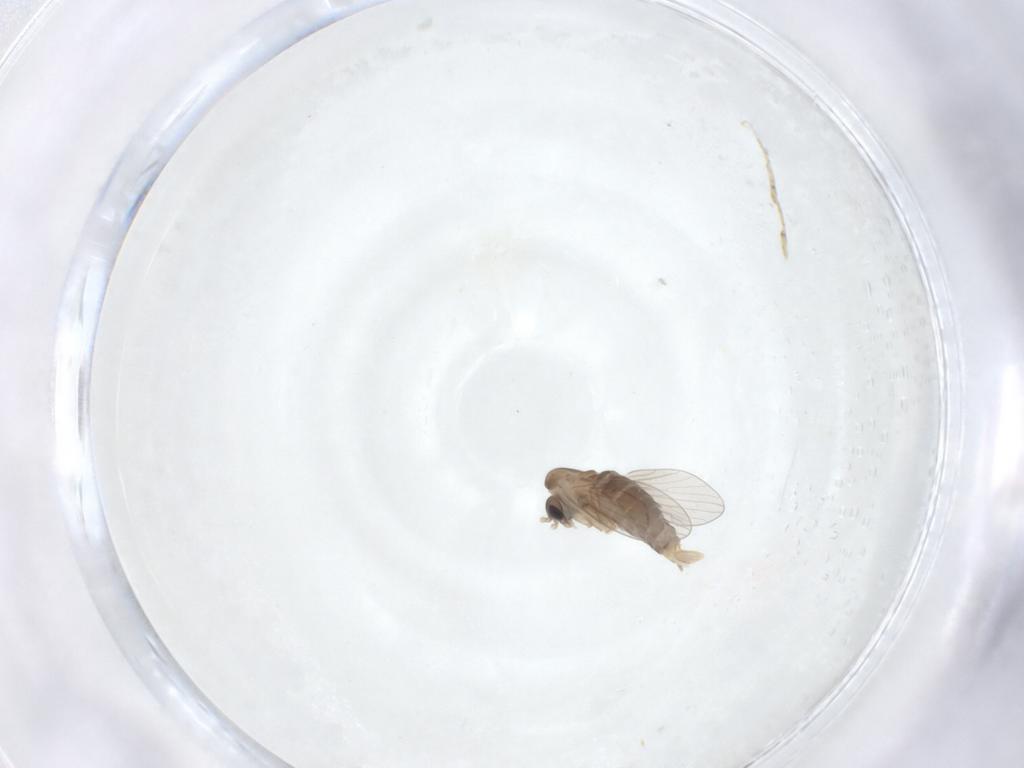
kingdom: Animalia
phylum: Arthropoda
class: Insecta
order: Diptera
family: Psychodidae
